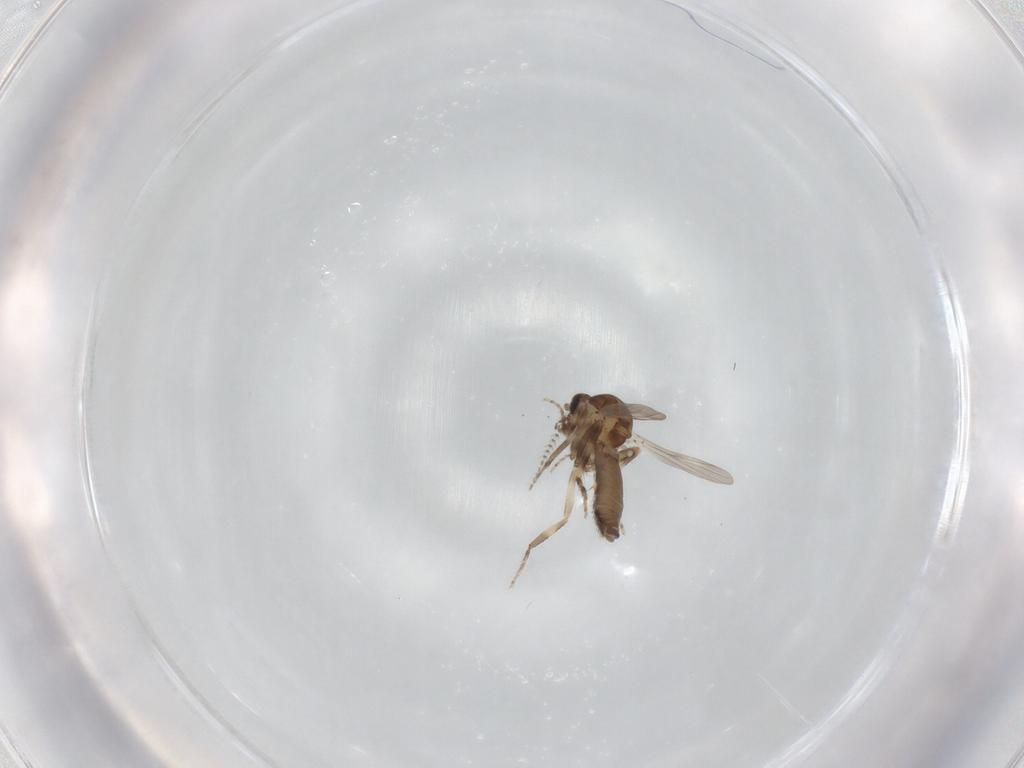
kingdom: Animalia
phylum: Arthropoda
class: Insecta
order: Diptera
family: Ceratopogonidae
